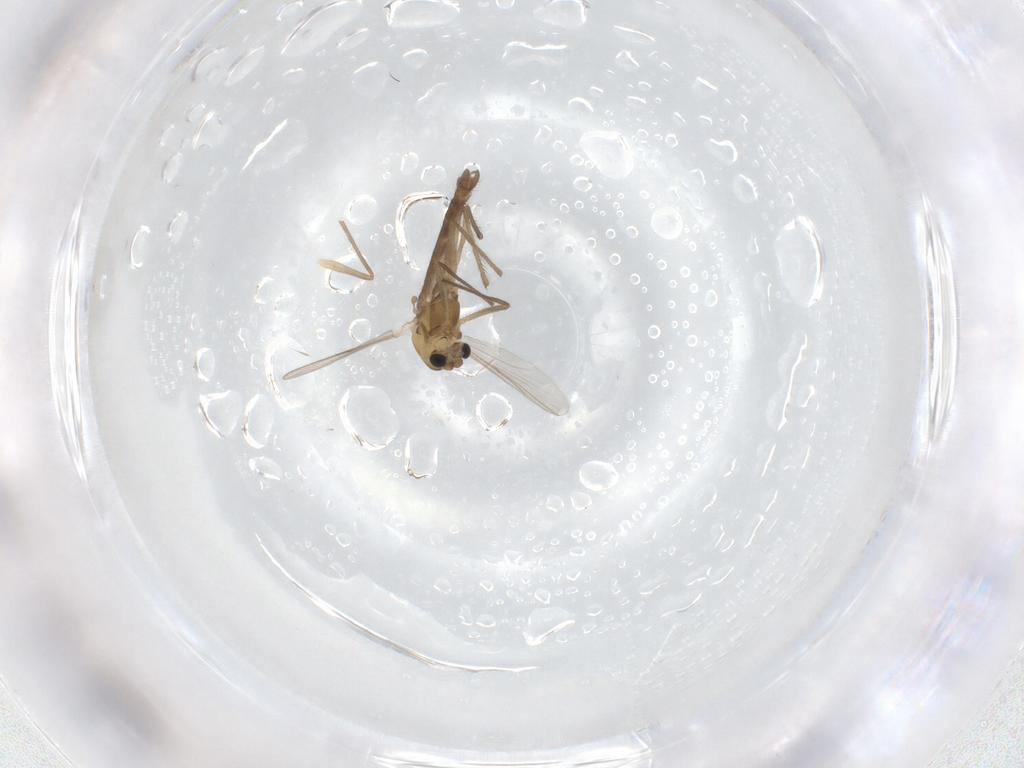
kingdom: Animalia
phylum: Arthropoda
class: Insecta
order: Diptera
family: Chironomidae
